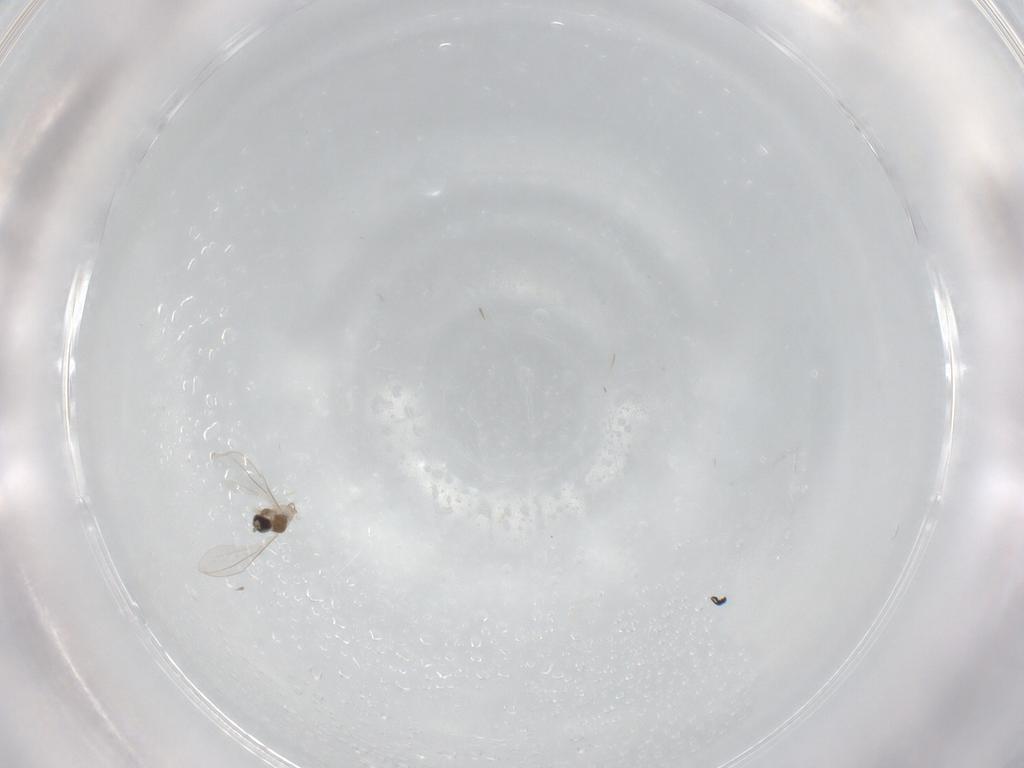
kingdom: Animalia
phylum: Arthropoda
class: Insecta
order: Diptera
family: Cecidomyiidae
